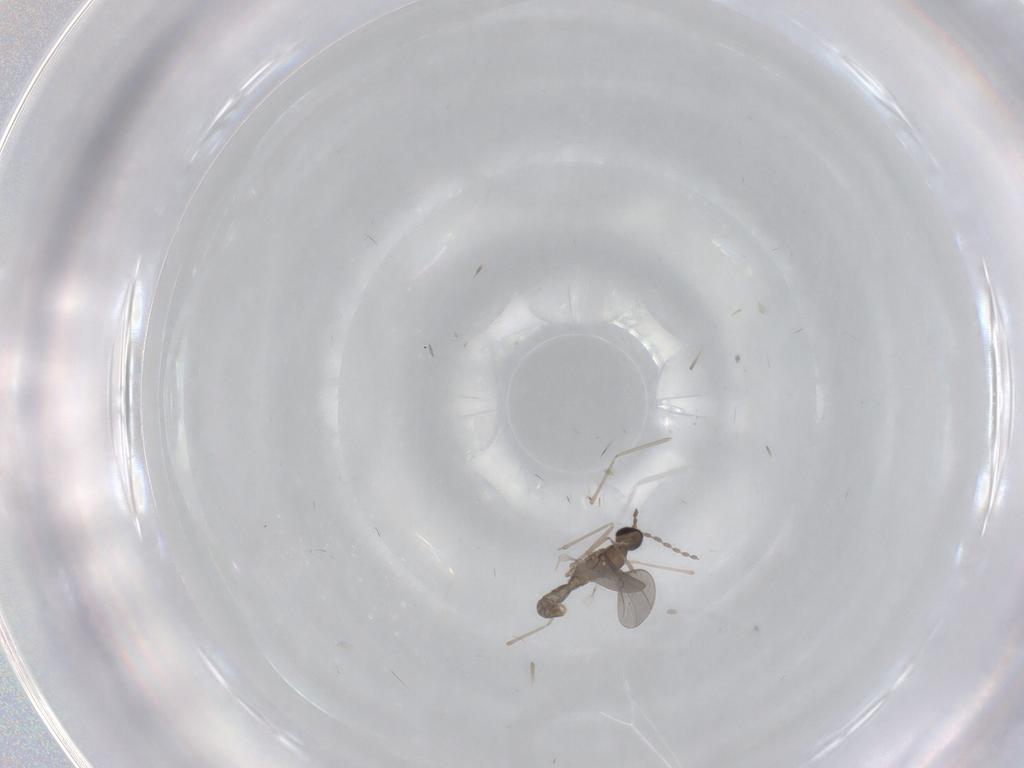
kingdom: Animalia
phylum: Arthropoda
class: Insecta
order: Diptera
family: Cecidomyiidae
